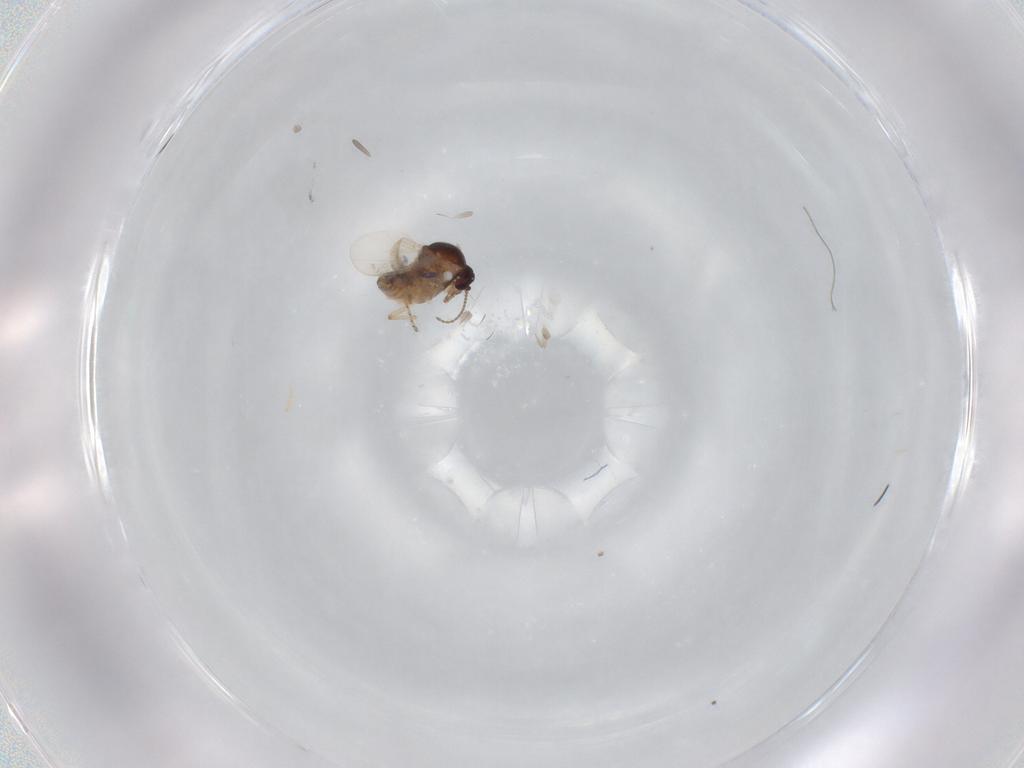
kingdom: Animalia
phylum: Arthropoda
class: Insecta
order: Diptera
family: Ceratopogonidae
